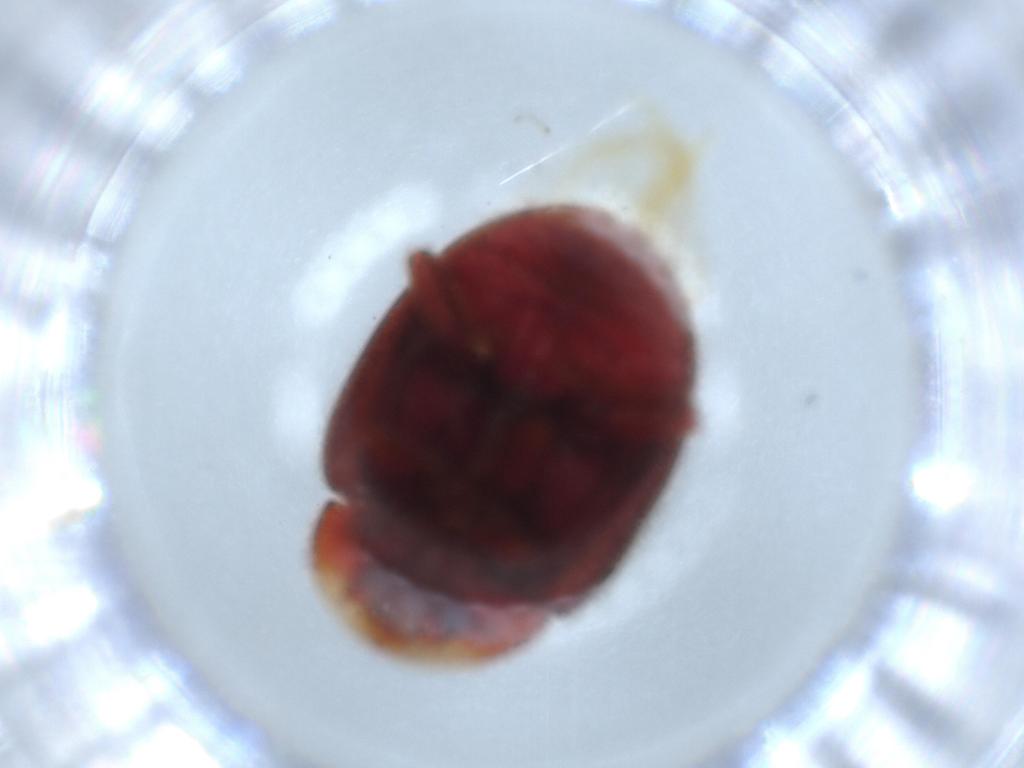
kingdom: Animalia
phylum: Arthropoda
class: Insecta
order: Coleoptera
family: Coccinellidae
